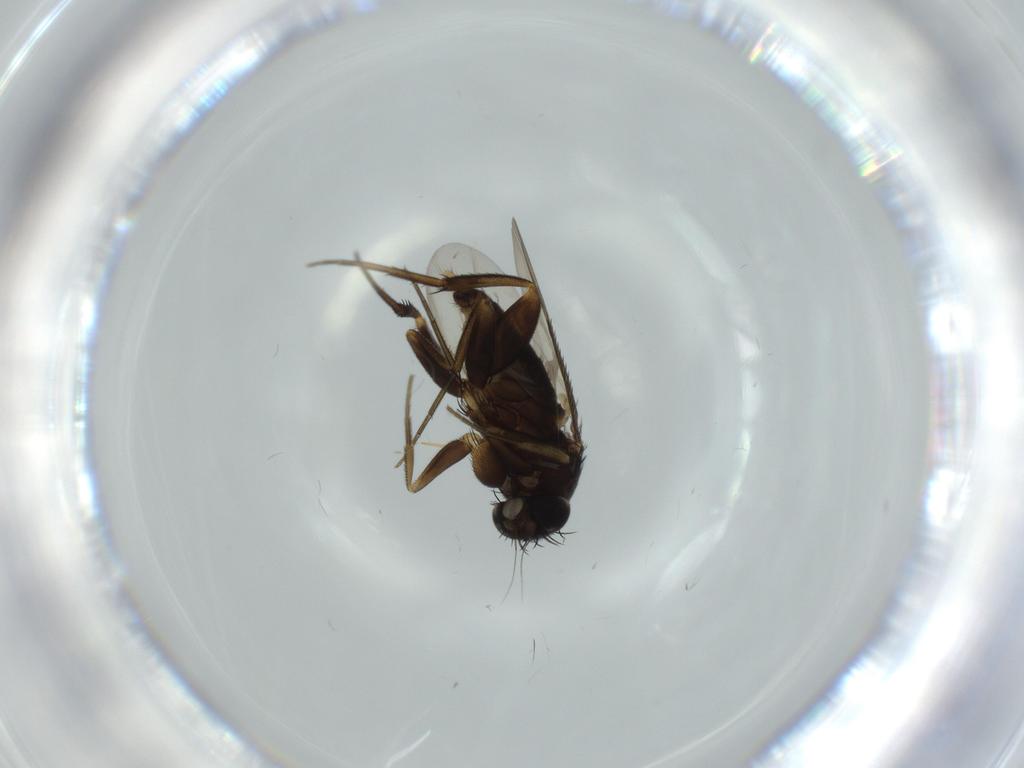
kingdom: Animalia
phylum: Arthropoda
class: Insecta
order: Diptera
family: Phoridae
